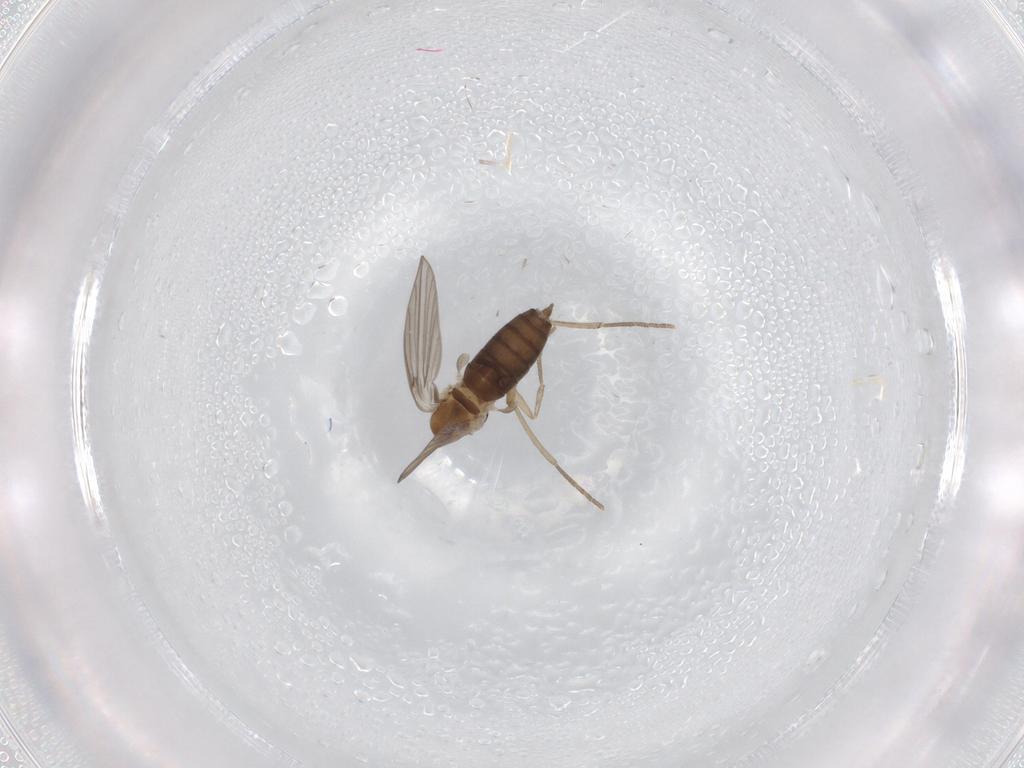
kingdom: Animalia
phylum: Arthropoda
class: Insecta
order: Diptera
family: Psychodidae
